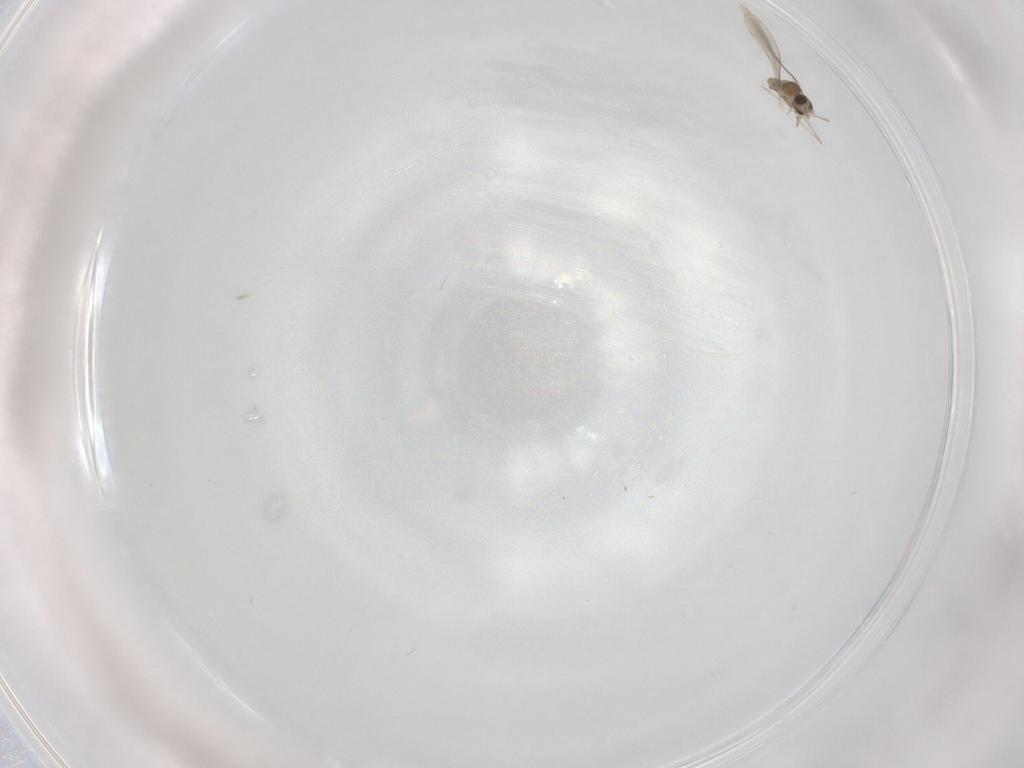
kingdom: Animalia
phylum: Arthropoda
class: Insecta
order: Diptera
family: Cecidomyiidae
